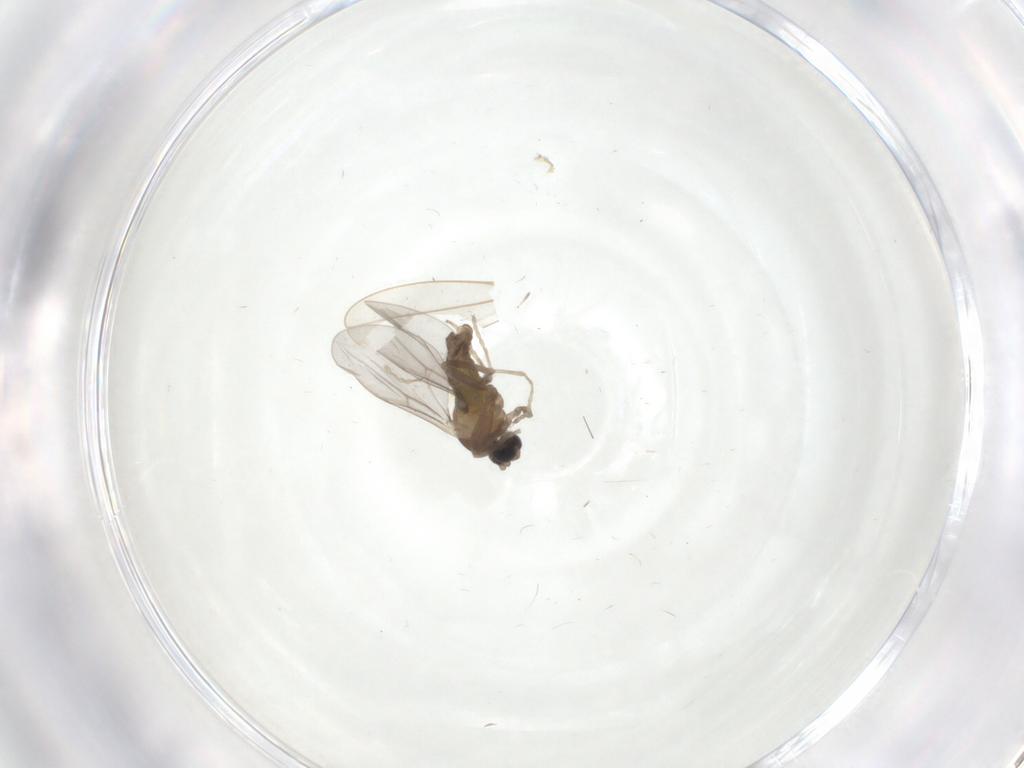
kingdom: Animalia
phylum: Arthropoda
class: Insecta
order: Diptera
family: Cecidomyiidae
